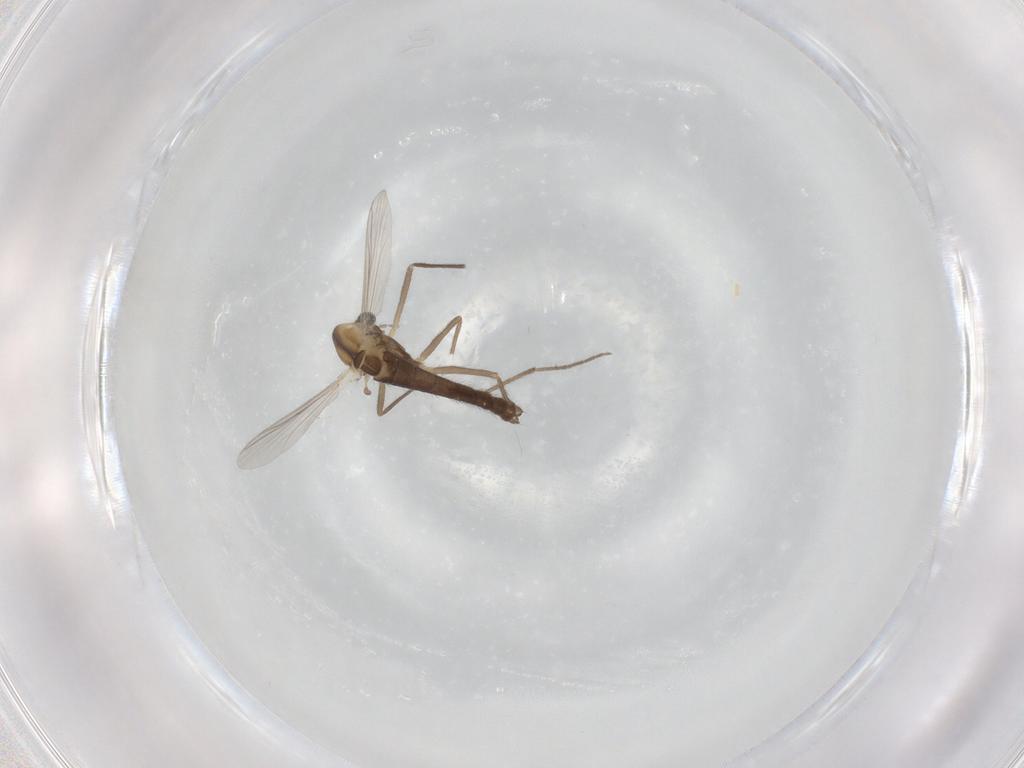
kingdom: Animalia
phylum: Arthropoda
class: Insecta
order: Diptera
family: Chironomidae
